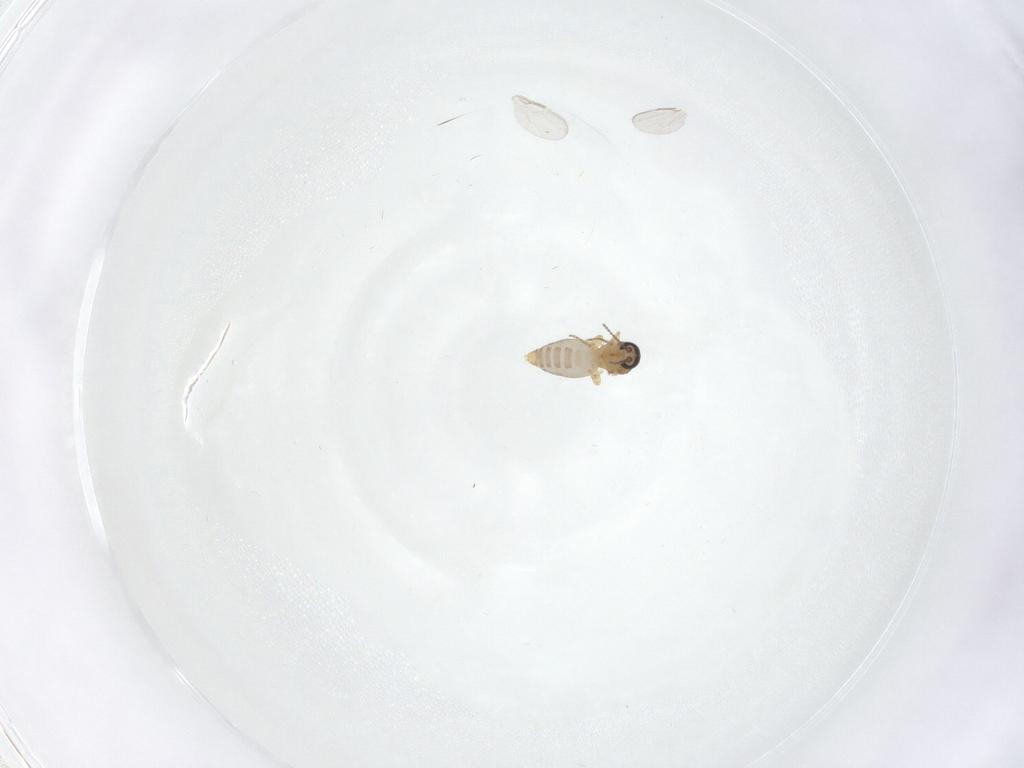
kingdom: Animalia
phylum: Arthropoda
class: Insecta
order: Diptera
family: Ceratopogonidae
